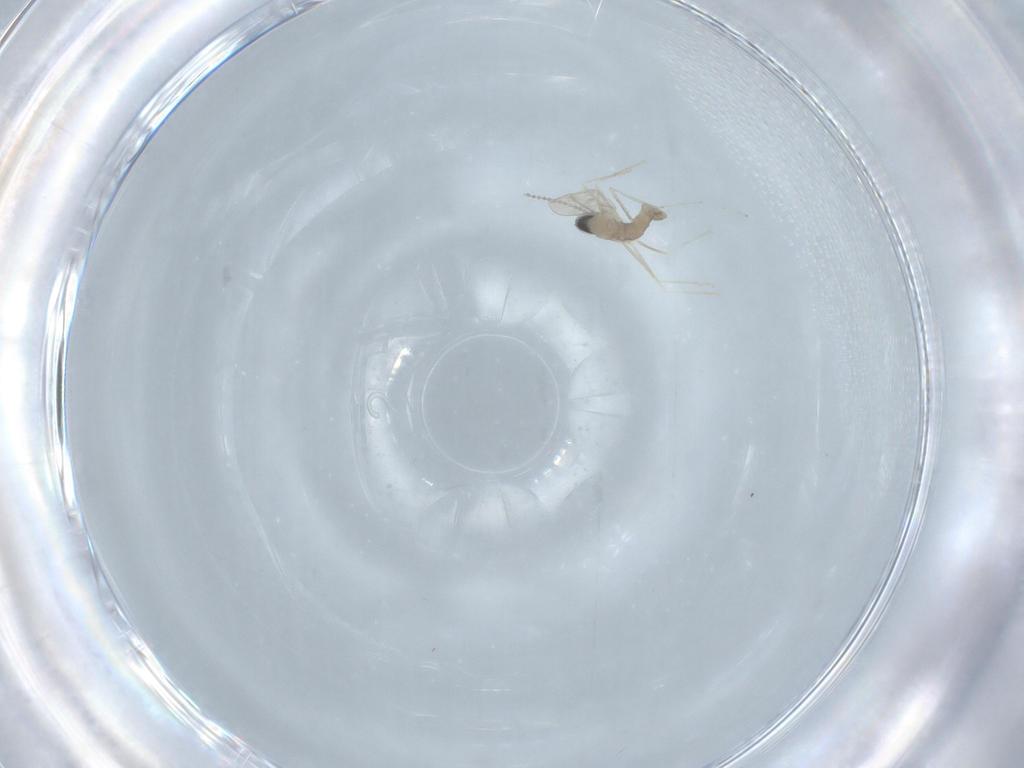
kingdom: Animalia
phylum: Arthropoda
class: Insecta
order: Diptera
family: Cecidomyiidae
